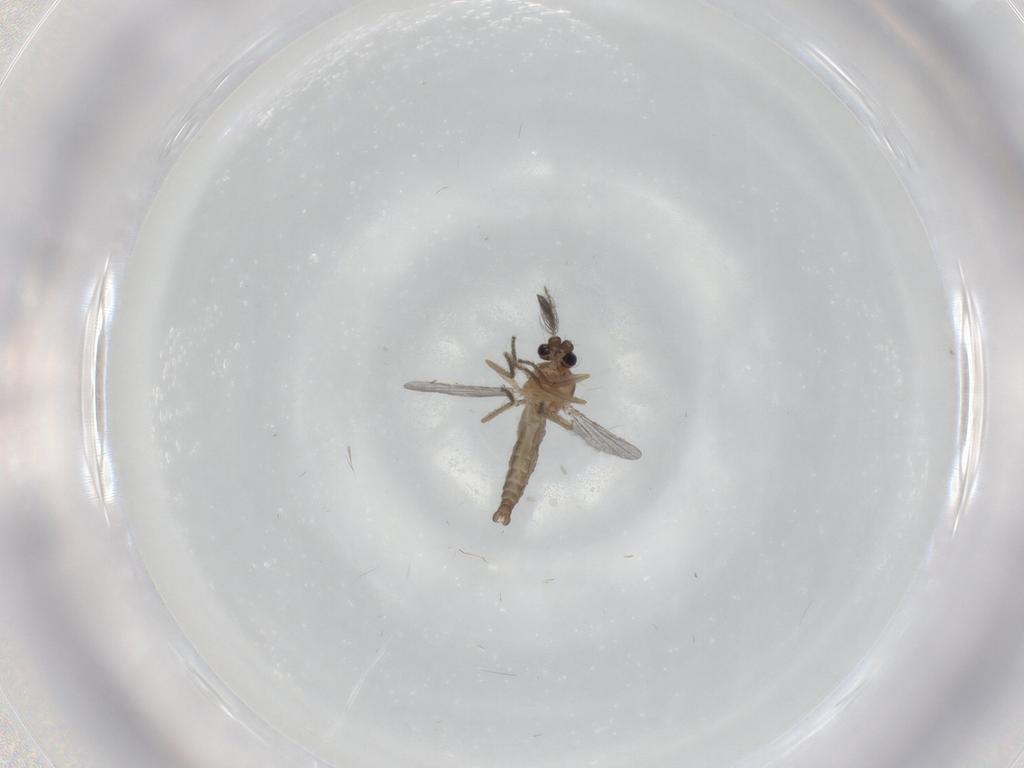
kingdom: Animalia
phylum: Arthropoda
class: Insecta
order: Diptera
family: Ceratopogonidae
